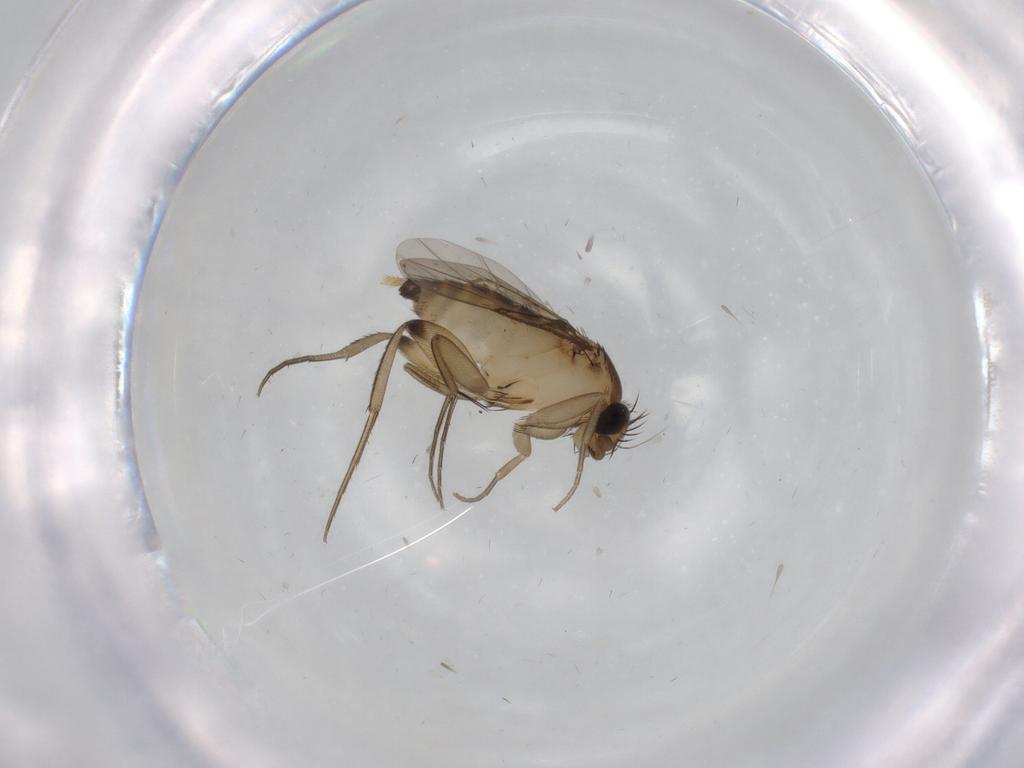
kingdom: Animalia
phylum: Arthropoda
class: Insecta
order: Diptera
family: Phoridae
